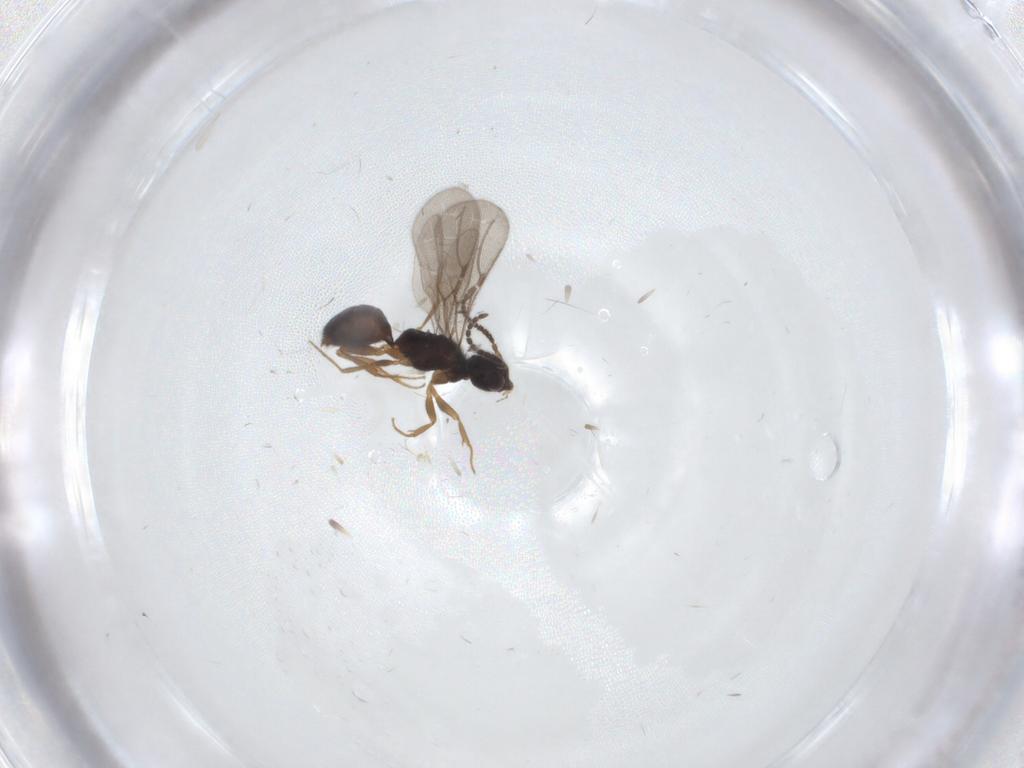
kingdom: Animalia
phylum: Arthropoda
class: Insecta
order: Hymenoptera
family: Bethylidae
